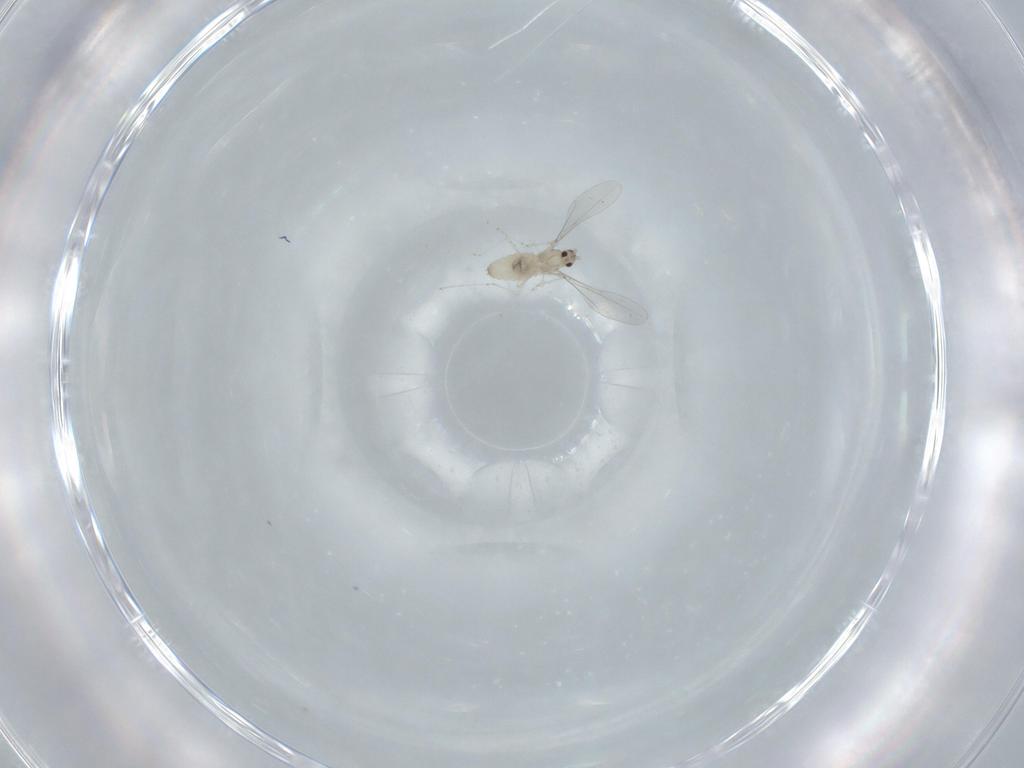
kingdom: Animalia
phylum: Arthropoda
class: Insecta
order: Diptera
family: Cecidomyiidae
